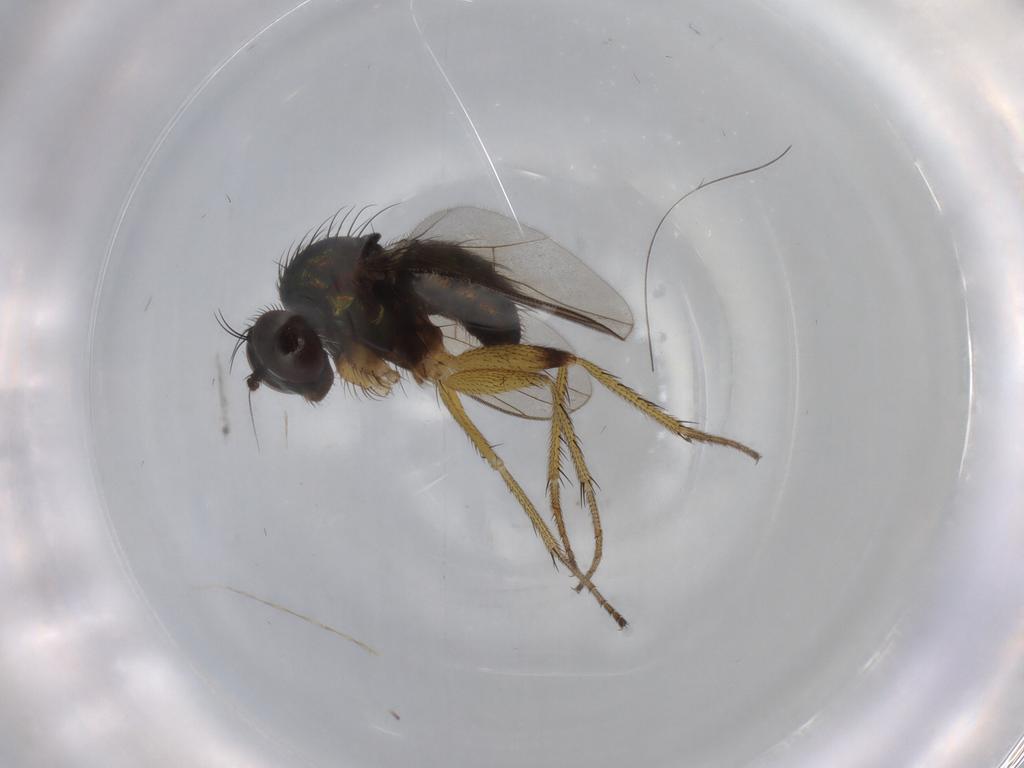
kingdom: Animalia
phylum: Arthropoda
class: Insecta
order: Diptera
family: Dolichopodidae
